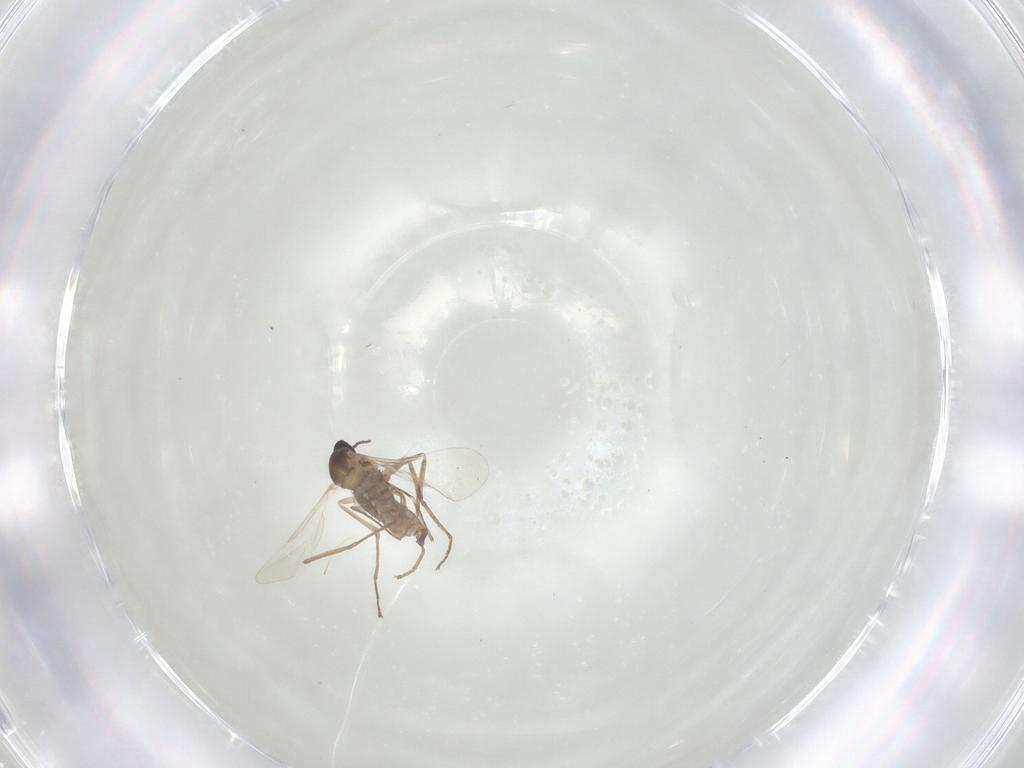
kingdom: Animalia
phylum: Arthropoda
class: Insecta
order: Diptera
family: Cecidomyiidae
